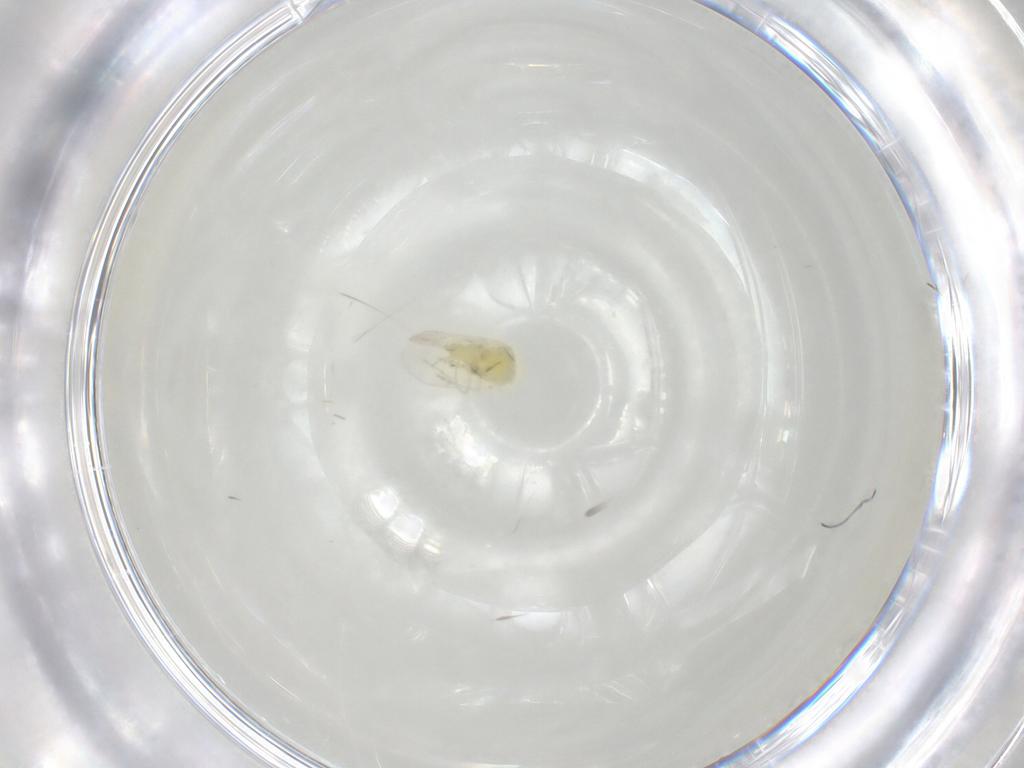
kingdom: Animalia
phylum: Arthropoda
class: Insecta
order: Hemiptera
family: Aleyrodidae
